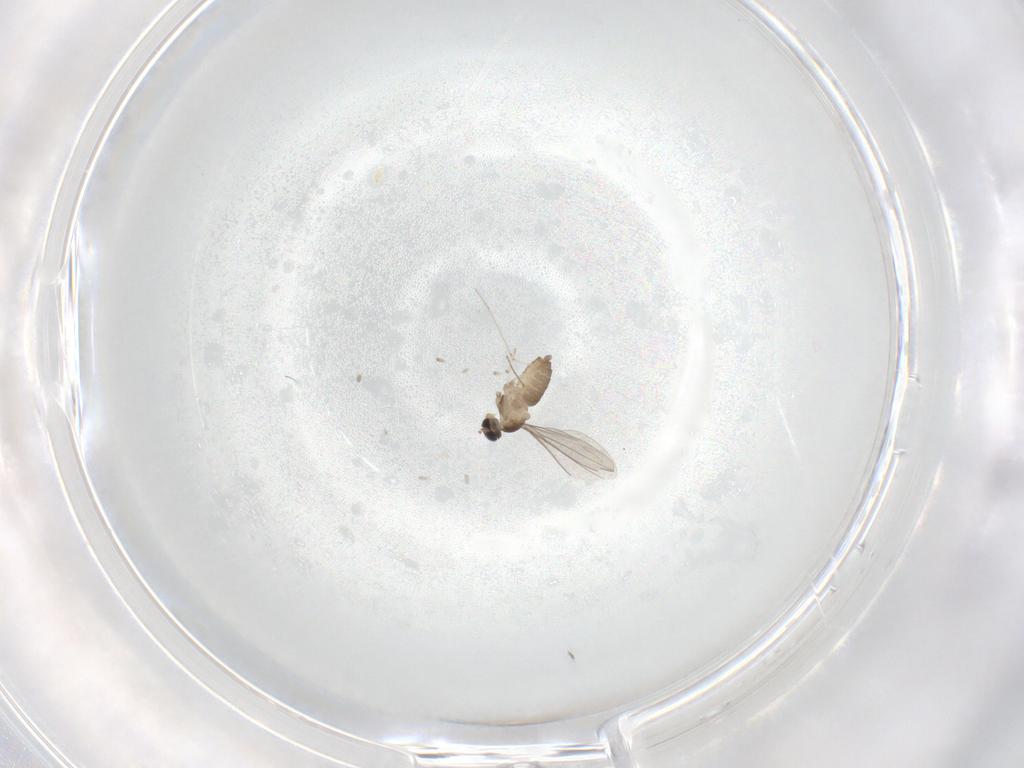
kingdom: Animalia
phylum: Arthropoda
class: Insecta
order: Diptera
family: Cecidomyiidae
